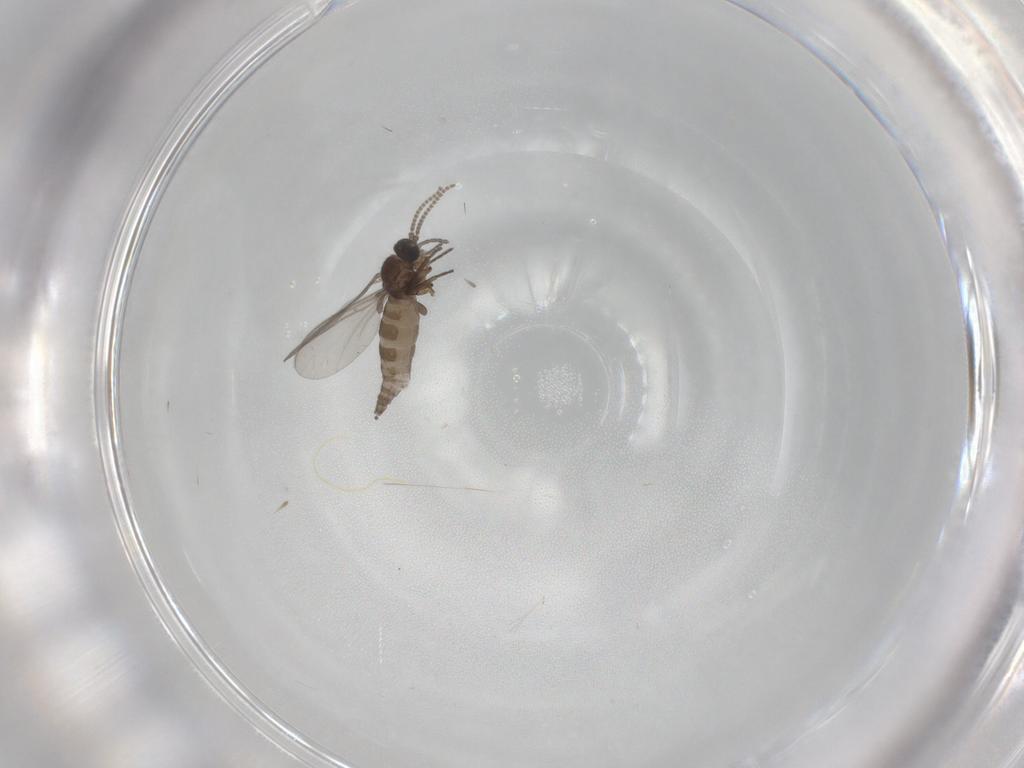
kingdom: Animalia
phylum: Arthropoda
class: Insecta
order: Diptera
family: Sciaridae
